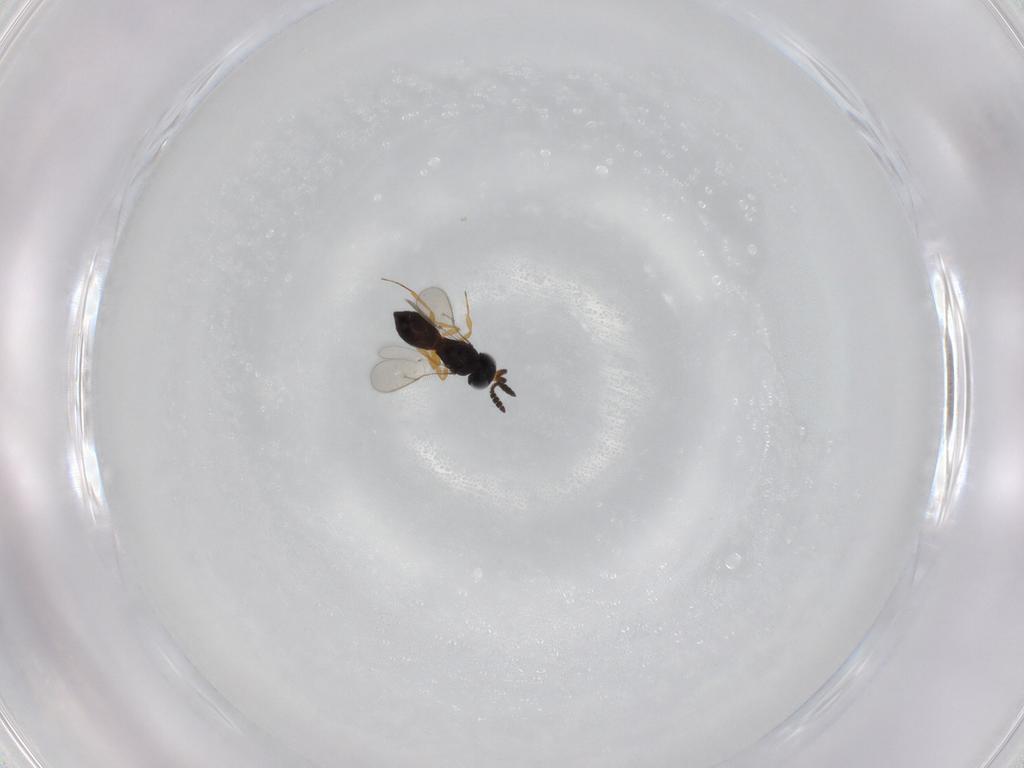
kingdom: Animalia
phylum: Arthropoda
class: Insecta
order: Hymenoptera
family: Scelionidae
